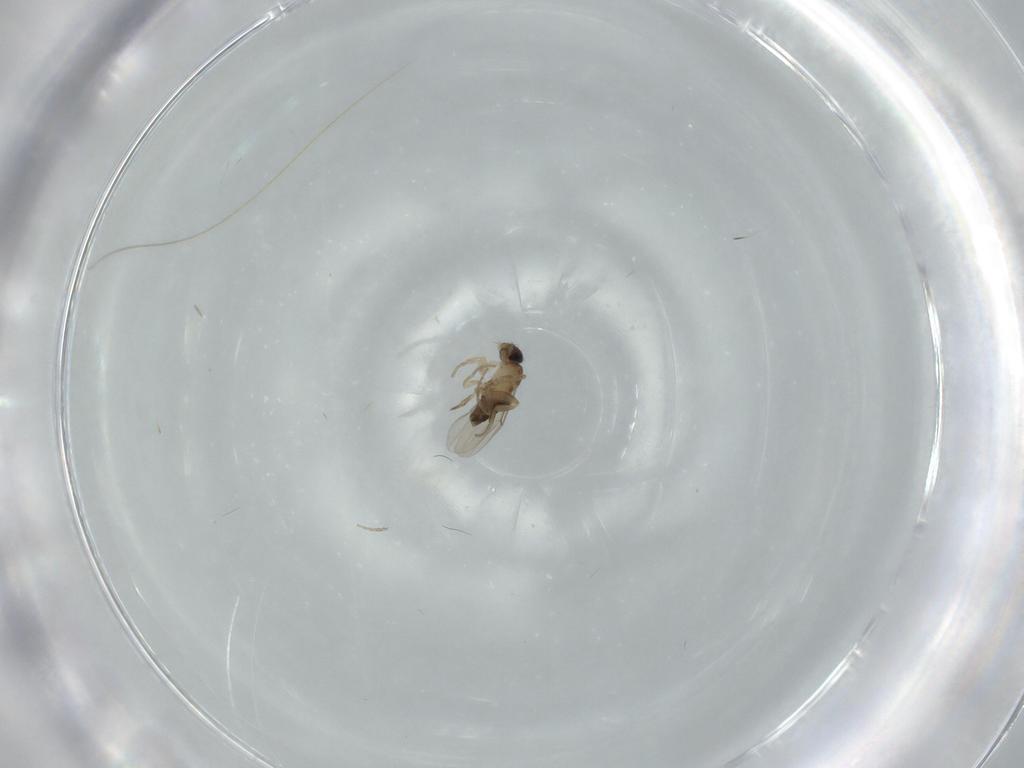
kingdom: Animalia
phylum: Arthropoda
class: Insecta
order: Diptera
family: Phoridae
